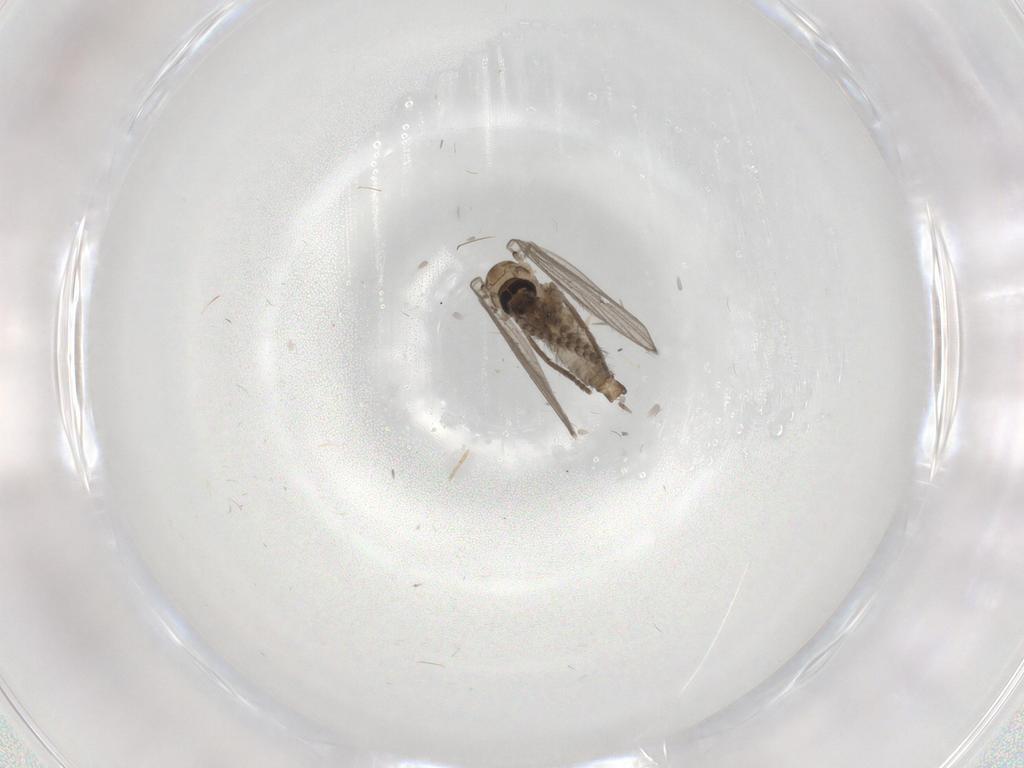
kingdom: Animalia
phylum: Arthropoda
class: Insecta
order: Diptera
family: Psychodidae
